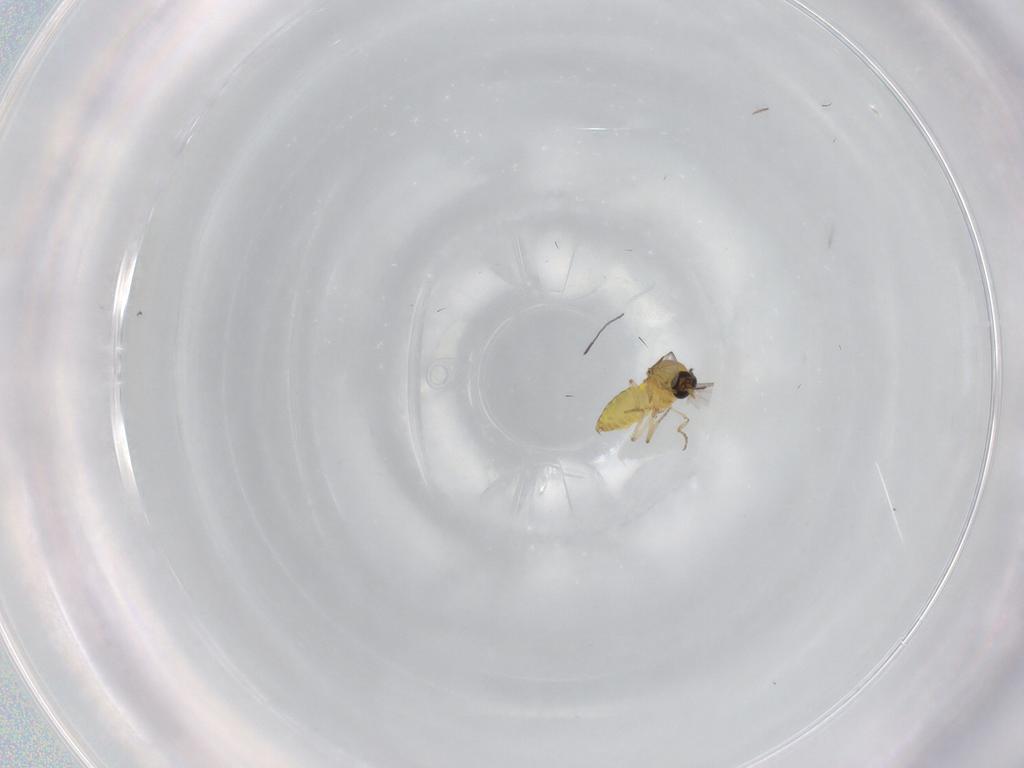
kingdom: Animalia
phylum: Arthropoda
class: Insecta
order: Diptera
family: Ceratopogonidae
